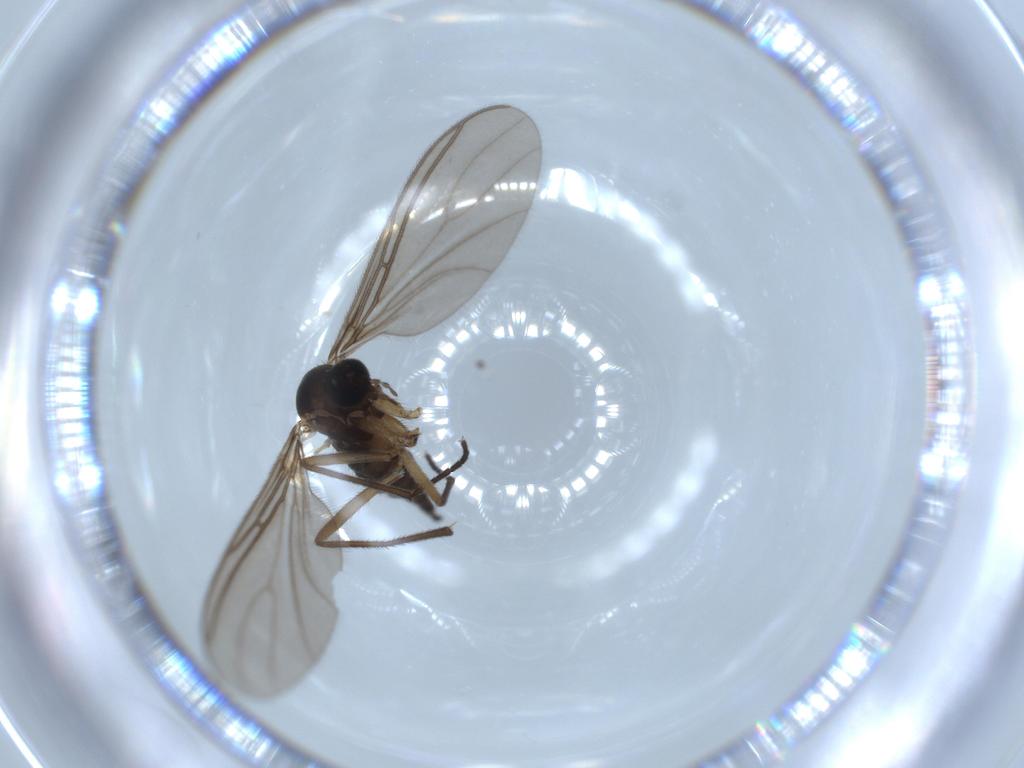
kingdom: Animalia
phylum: Arthropoda
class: Insecta
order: Diptera
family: Sciaridae
